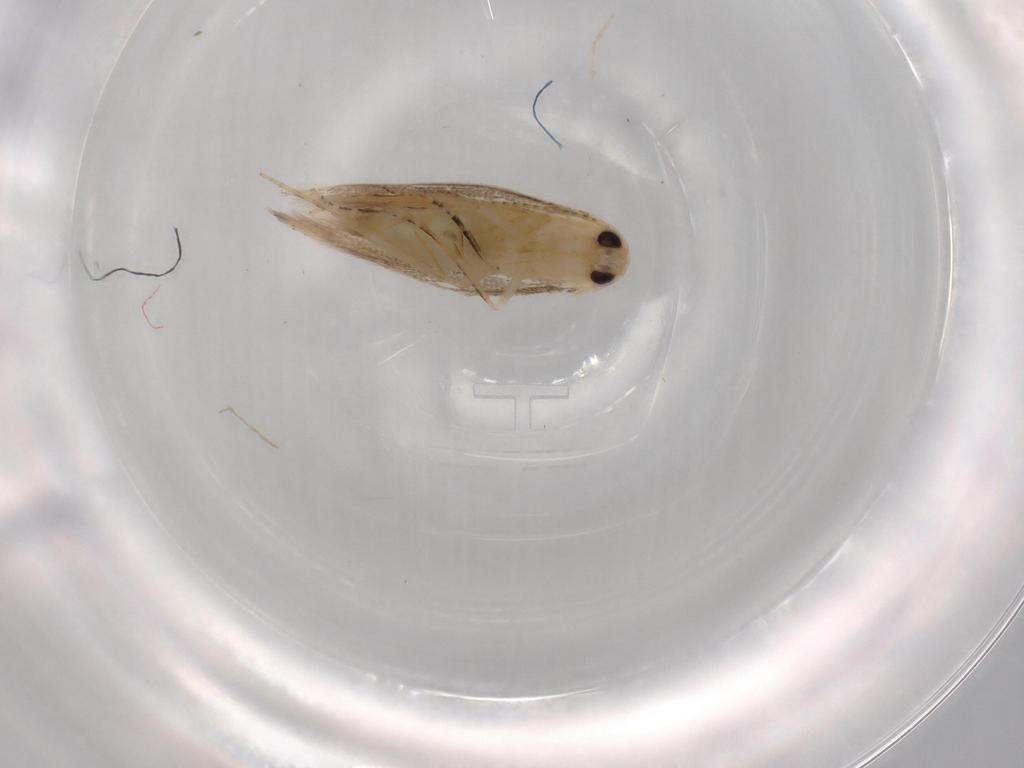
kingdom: Animalia
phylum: Arthropoda
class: Insecta
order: Lepidoptera
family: Bucculatricidae
